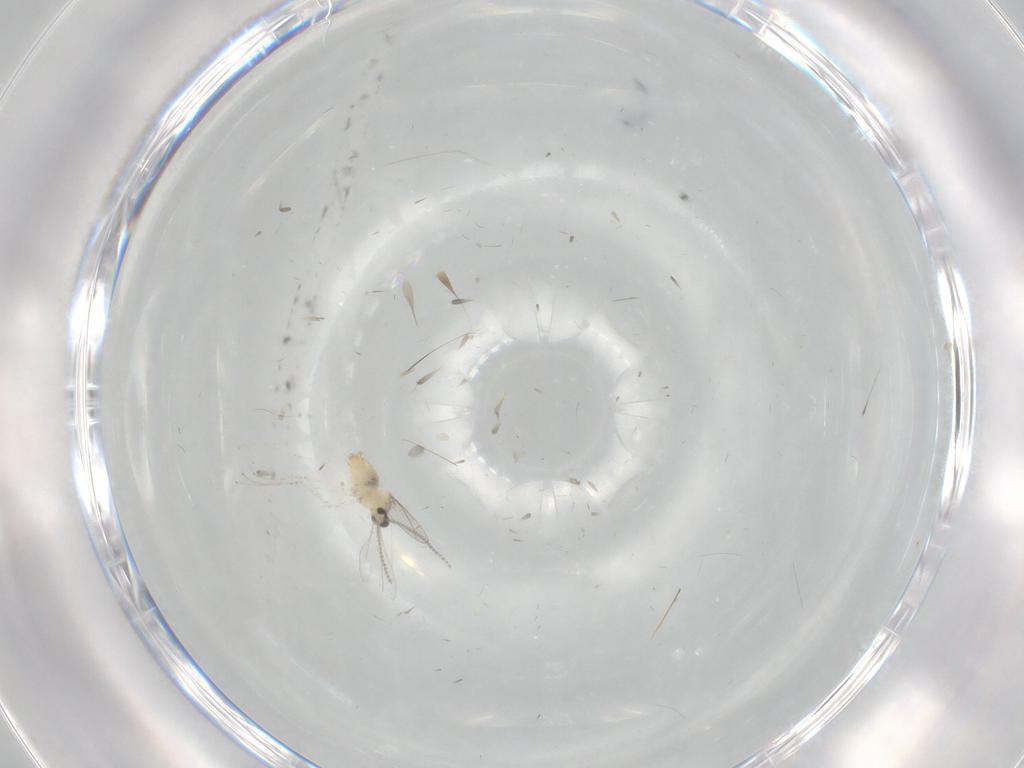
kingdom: Animalia
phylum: Arthropoda
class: Insecta
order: Diptera
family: Cecidomyiidae
